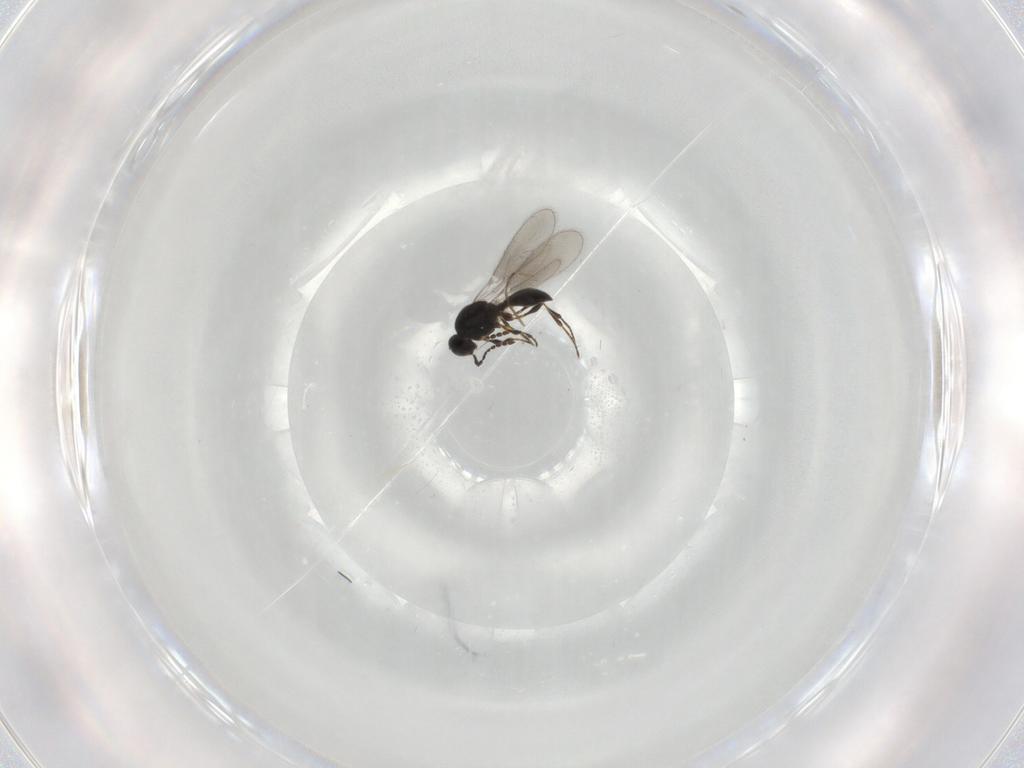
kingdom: Animalia
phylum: Arthropoda
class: Insecta
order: Hymenoptera
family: Platygastridae
